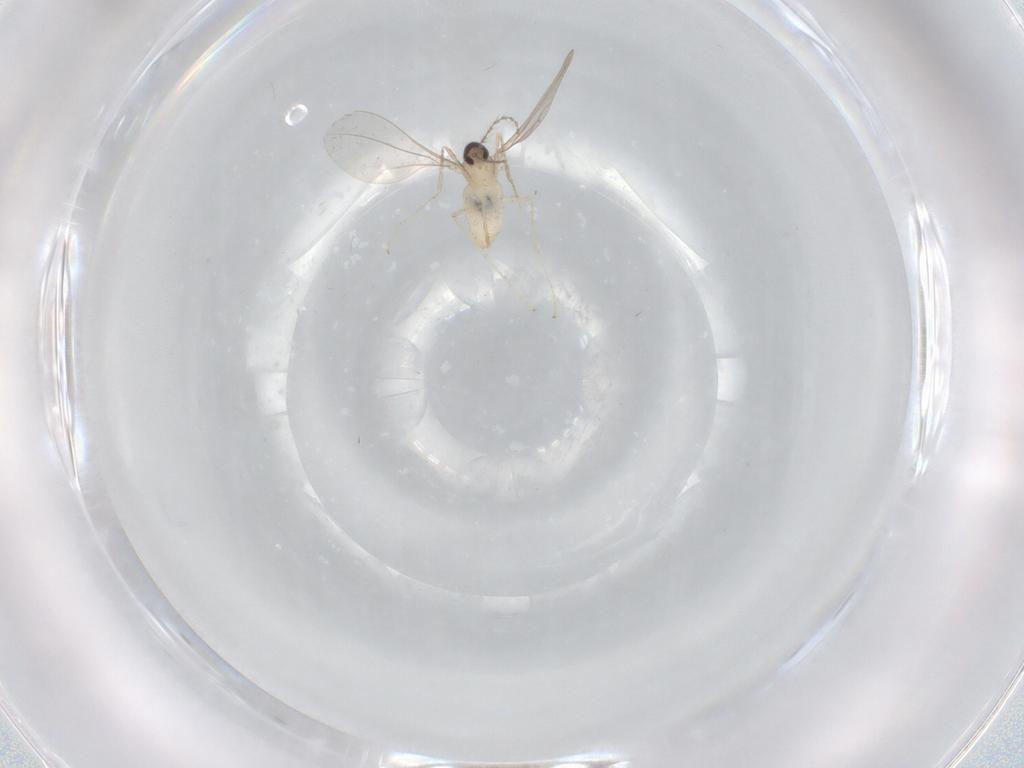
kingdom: Animalia
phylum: Arthropoda
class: Insecta
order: Diptera
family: Cecidomyiidae
